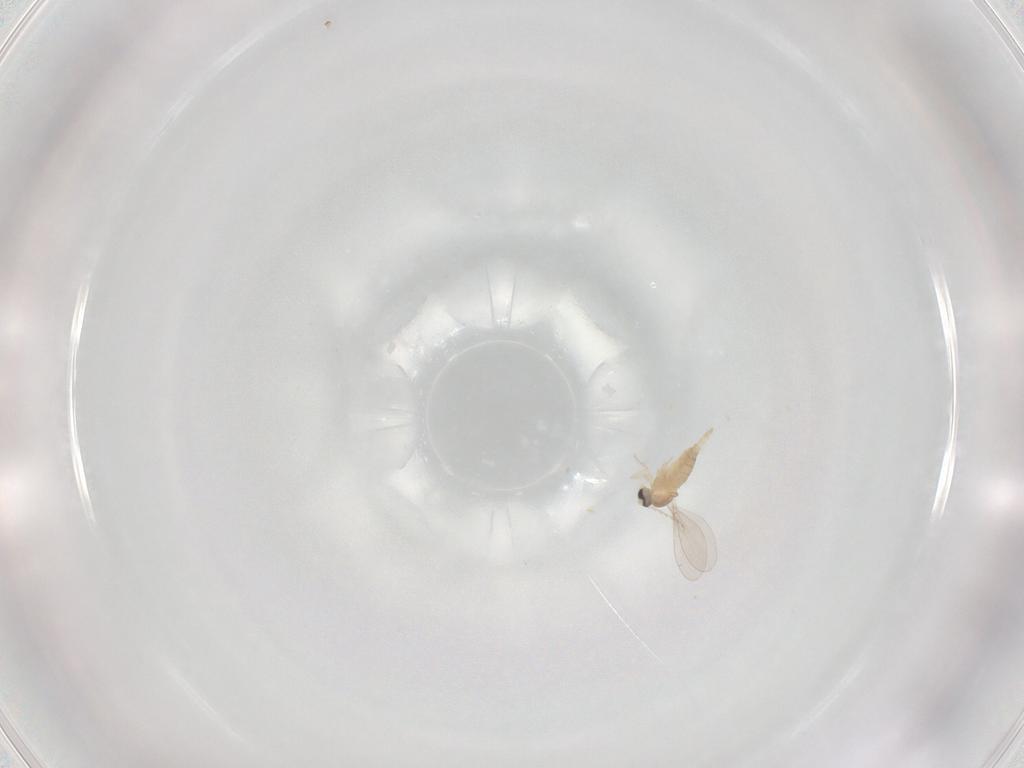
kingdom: Animalia
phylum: Arthropoda
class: Insecta
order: Diptera
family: Cecidomyiidae
